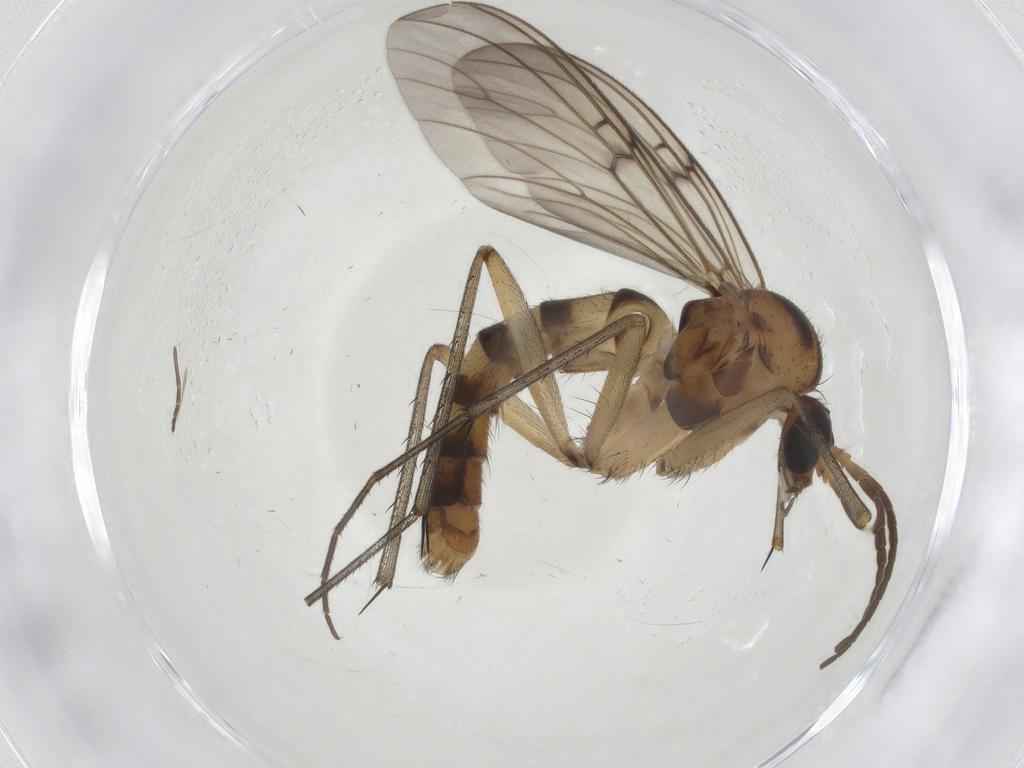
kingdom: Animalia
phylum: Arthropoda
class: Insecta
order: Diptera
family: Mycetophilidae
